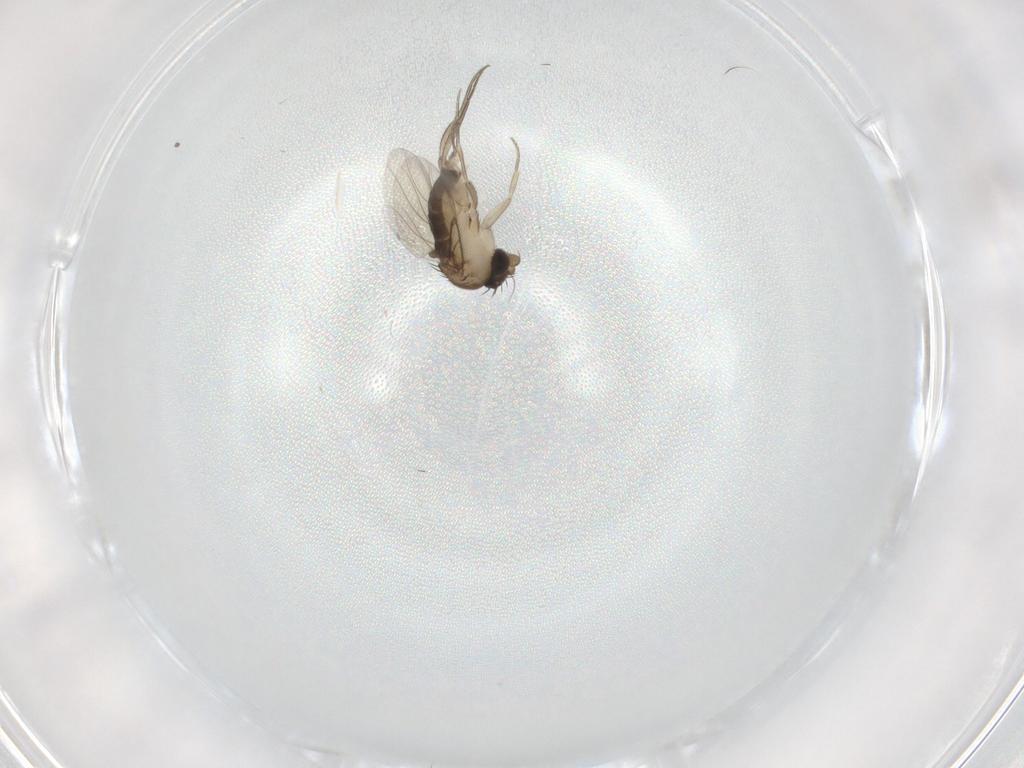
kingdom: Animalia
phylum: Arthropoda
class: Insecta
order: Diptera
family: Phoridae
